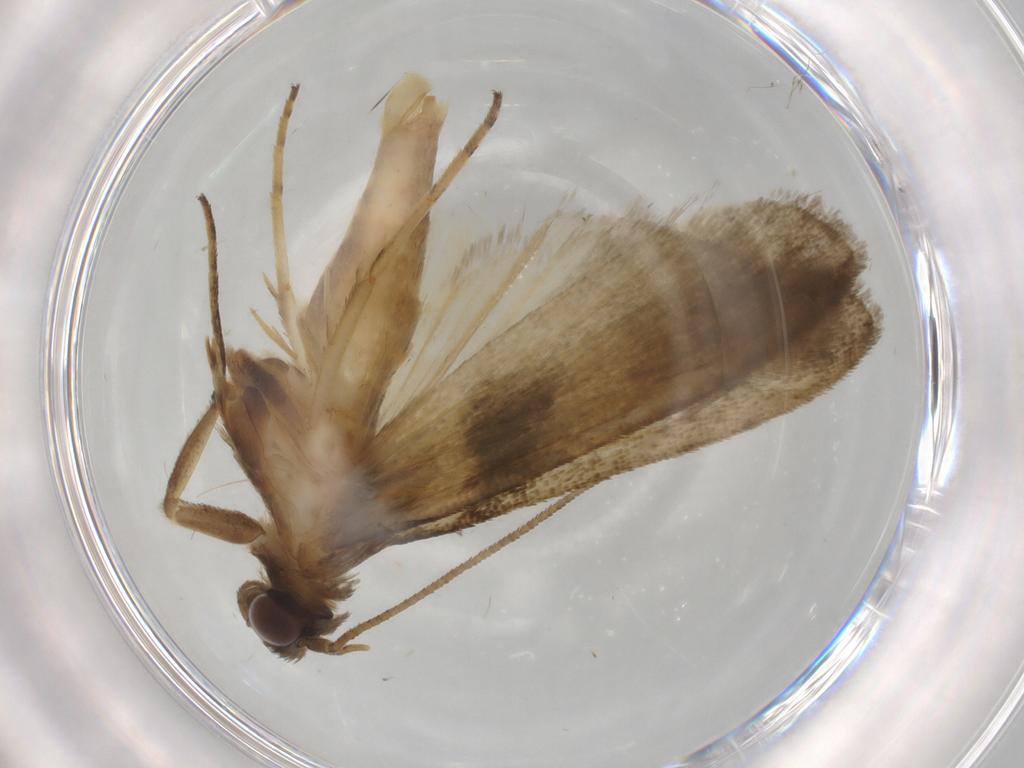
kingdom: Animalia
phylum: Arthropoda
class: Insecta
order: Lepidoptera
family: Noctuidae
